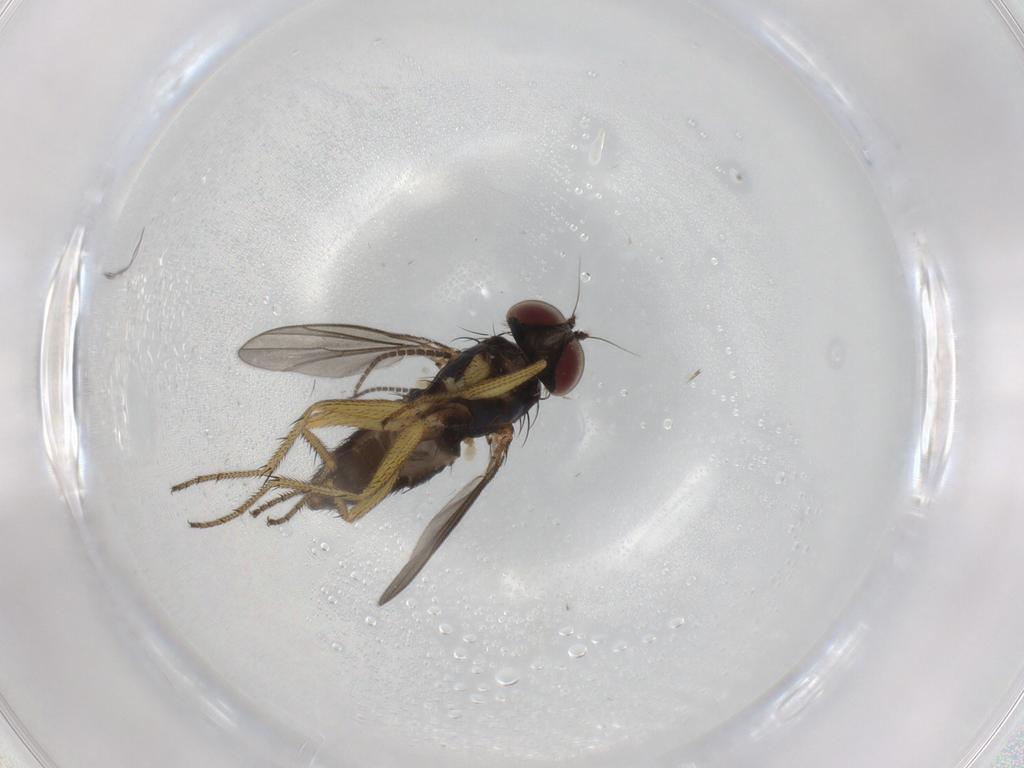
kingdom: Animalia
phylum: Arthropoda
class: Insecta
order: Diptera
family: Sciaridae
